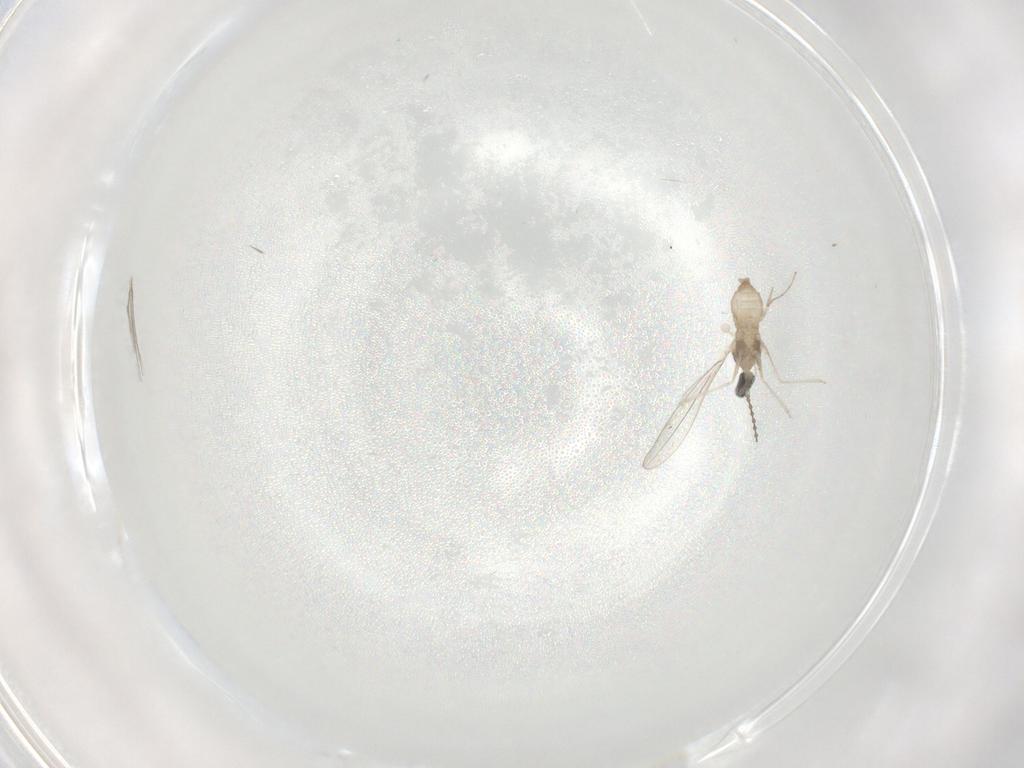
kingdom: Animalia
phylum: Arthropoda
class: Insecta
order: Diptera
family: Cecidomyiidae
